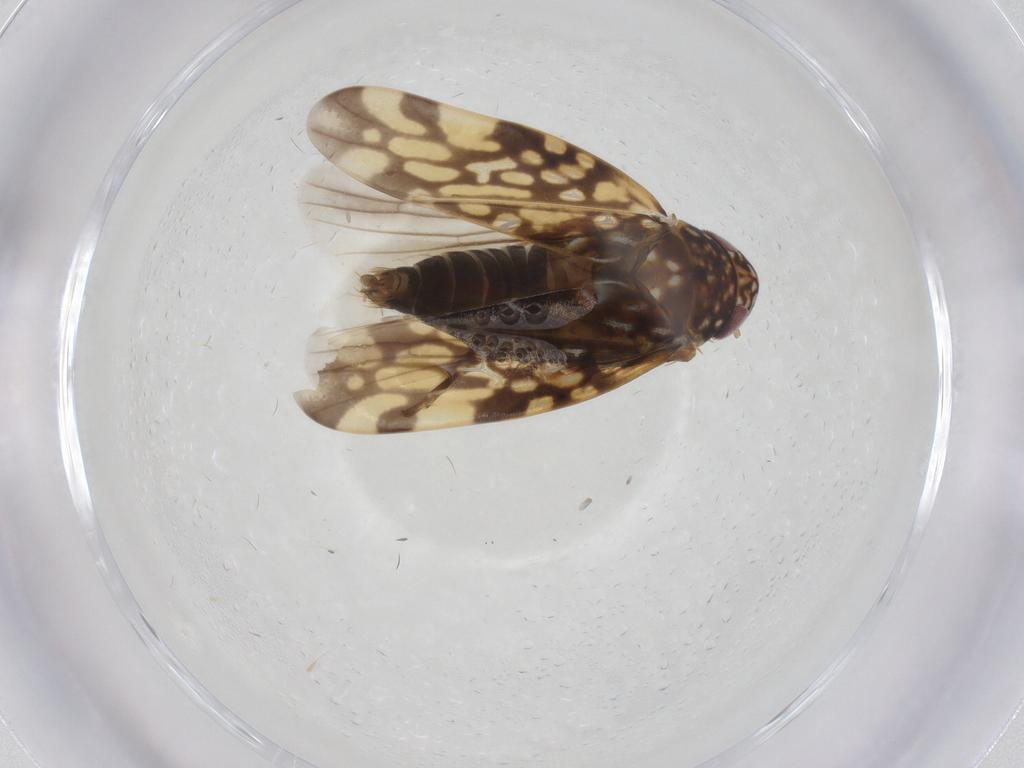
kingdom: Animalia
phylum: Arthropoda
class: Insecta
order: Hemiptera
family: Cicadellidae
